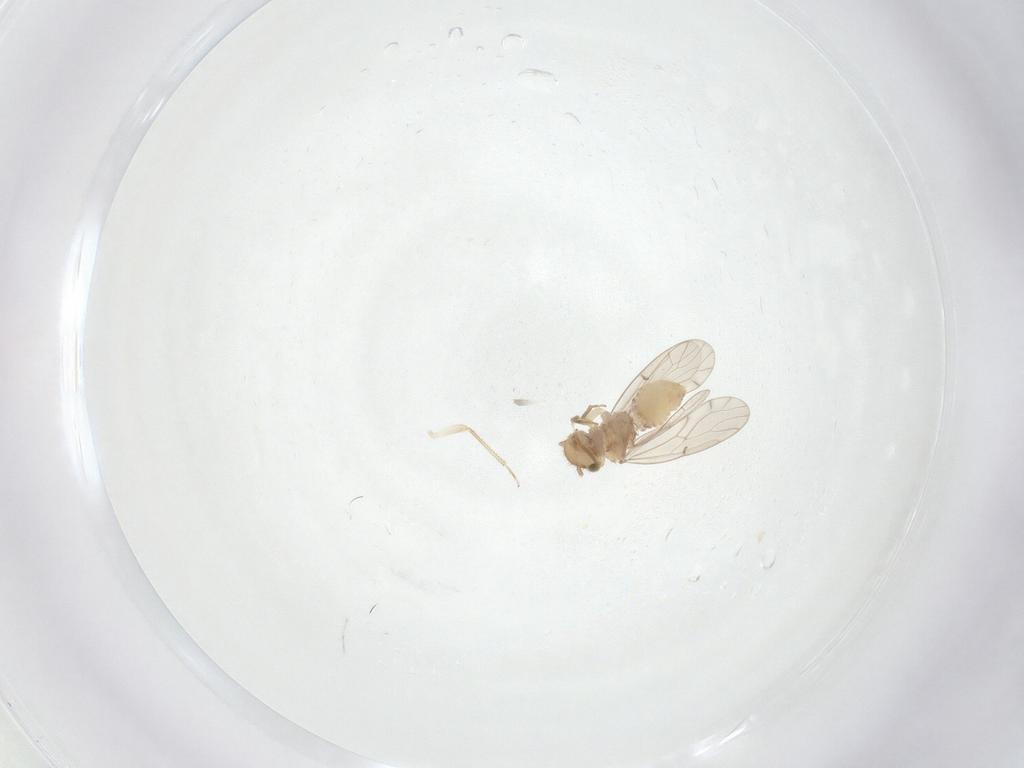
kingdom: Animalia
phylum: Arthropoda
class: Insecta
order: Psocodea
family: Ectopsocidae
